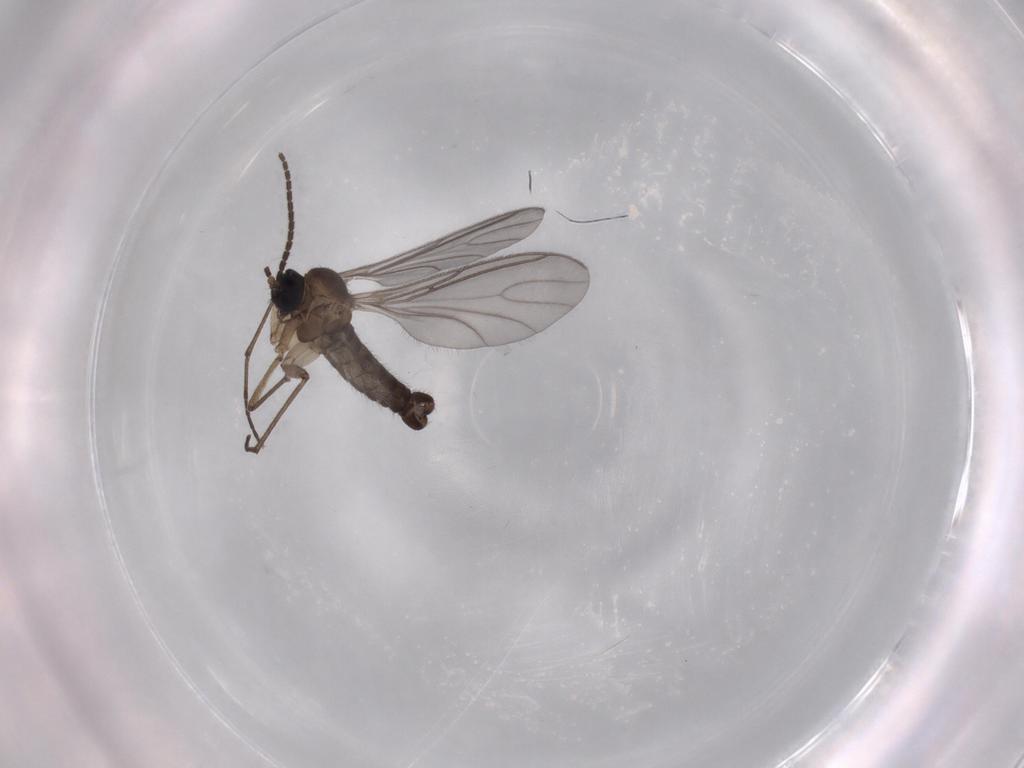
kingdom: Animalia
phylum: Arthropoda
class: Insecta
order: Diptera
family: Sciaridae
